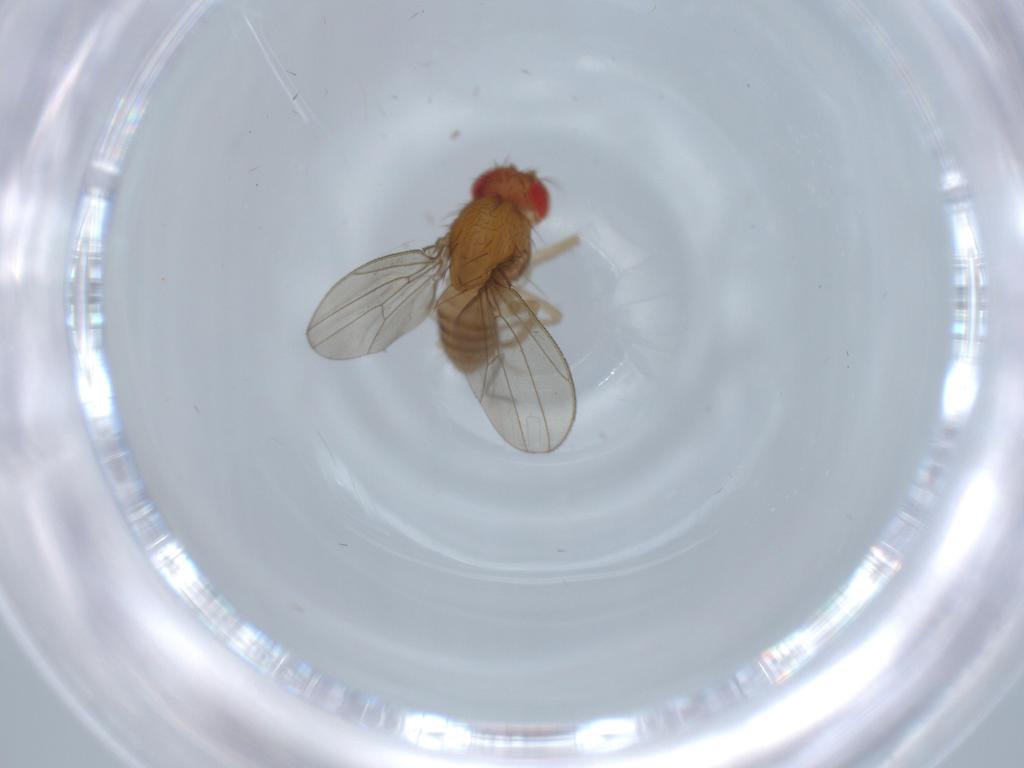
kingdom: Animalia
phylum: Arthropoda
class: Insecta
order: Diptera
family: Drosophilidae
